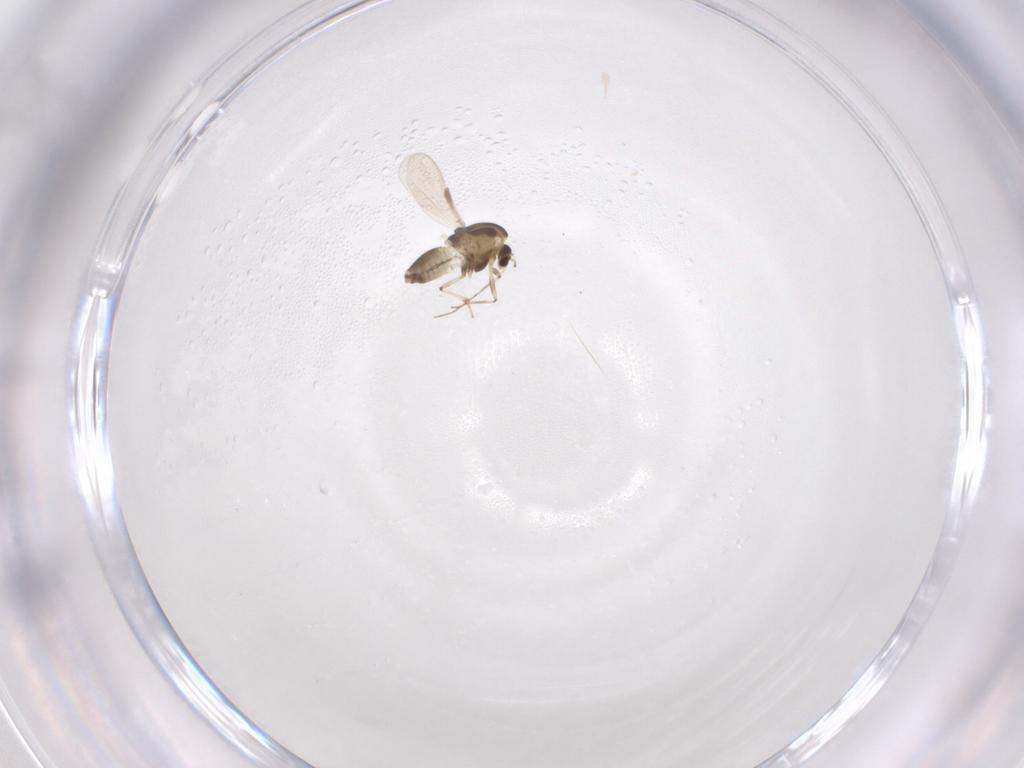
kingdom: Animalia
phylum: Arthropoda
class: Insecta
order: Diptera
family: Chironomidae
